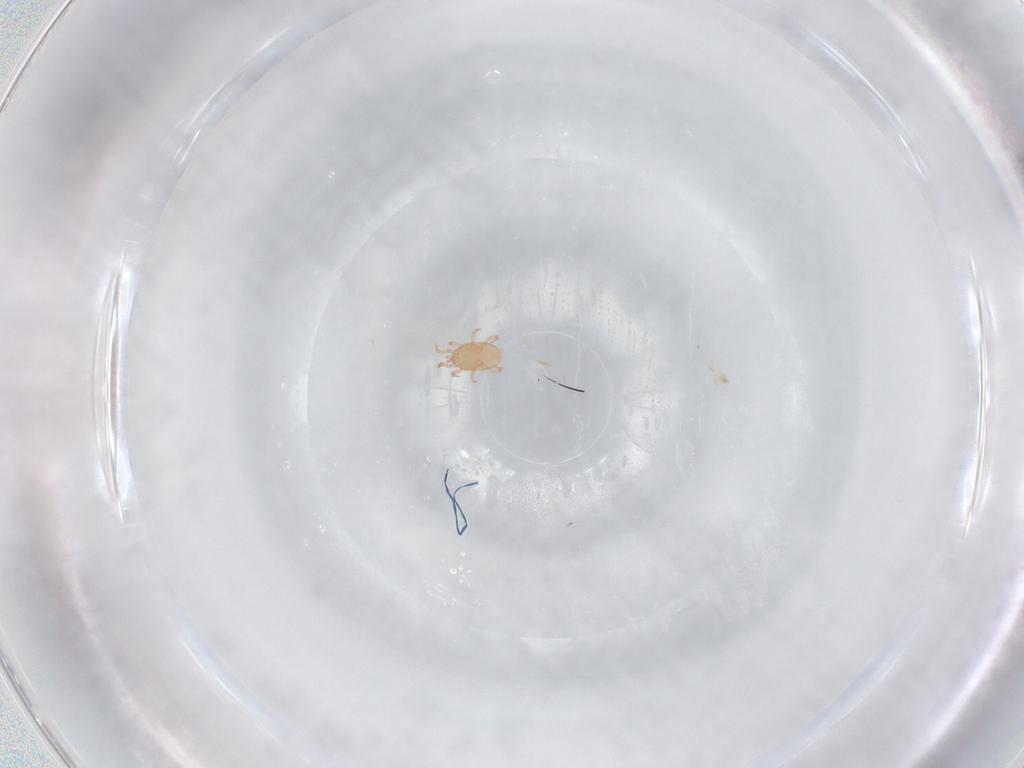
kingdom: Animalia
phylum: Arthropoda
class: Arachnida
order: Mesostigmata
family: Melicharidae
